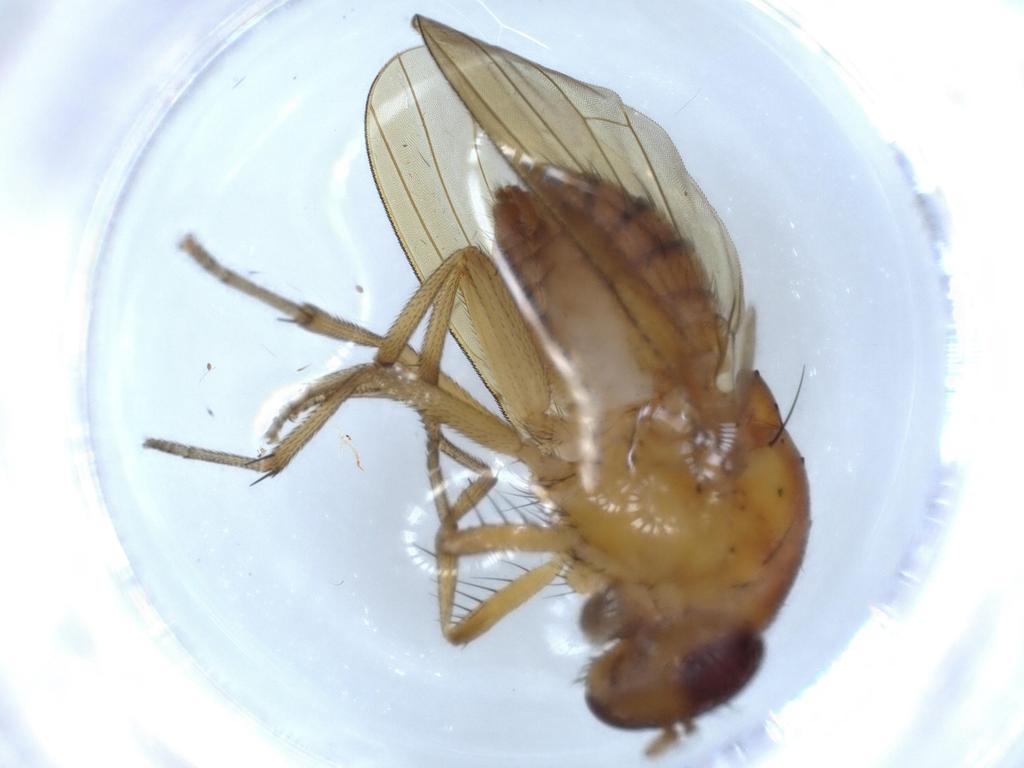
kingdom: Animalia
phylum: Arthropoda
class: Insecta
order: Diptera
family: Lauxaniidae
